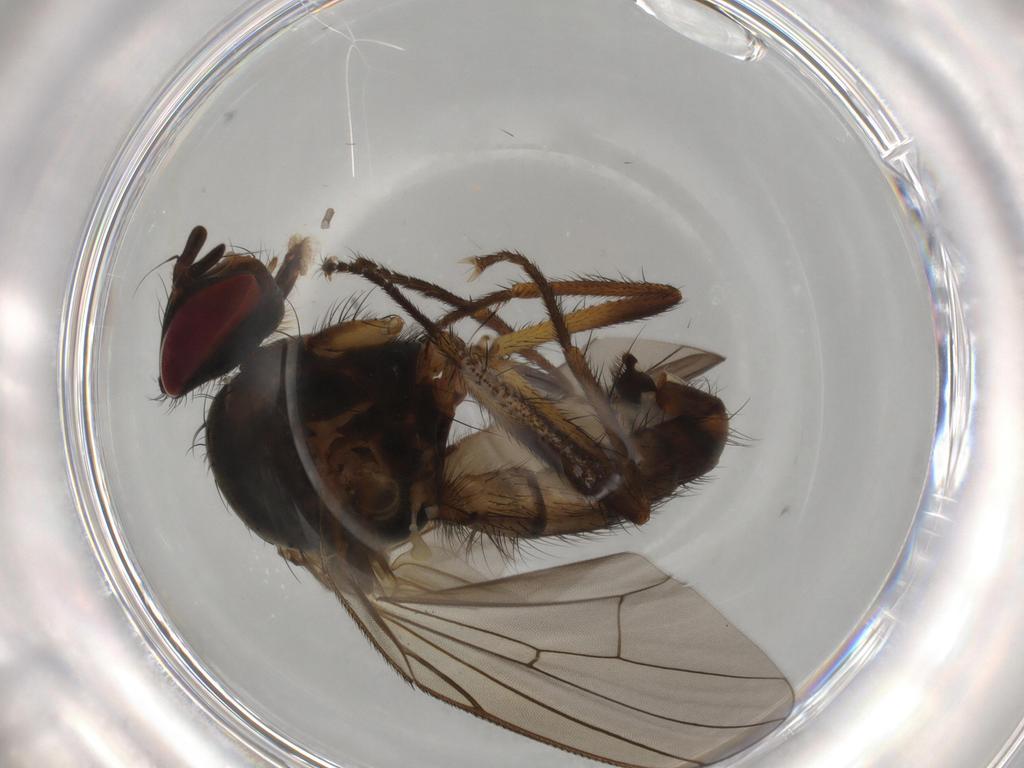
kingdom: Animalia
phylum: Arthropoda
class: Insecta
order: Diptera
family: Anthomyiidae
